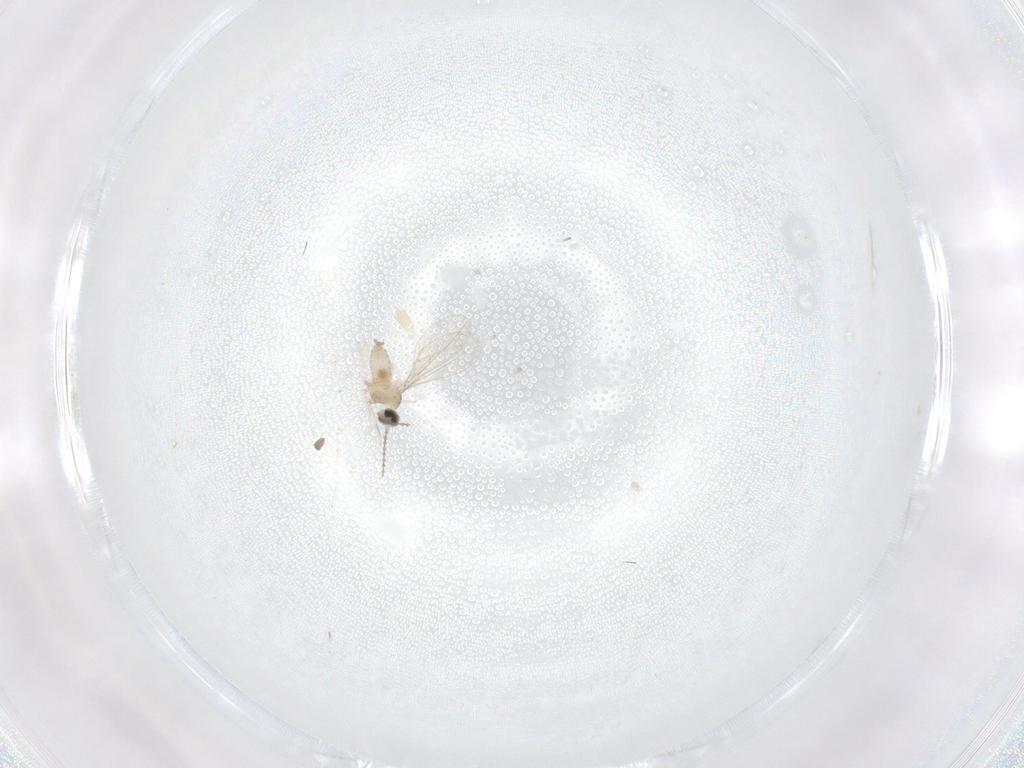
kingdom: Animalia
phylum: Arthropoda
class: Insecta
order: Diptera
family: Cecidomyiidae
